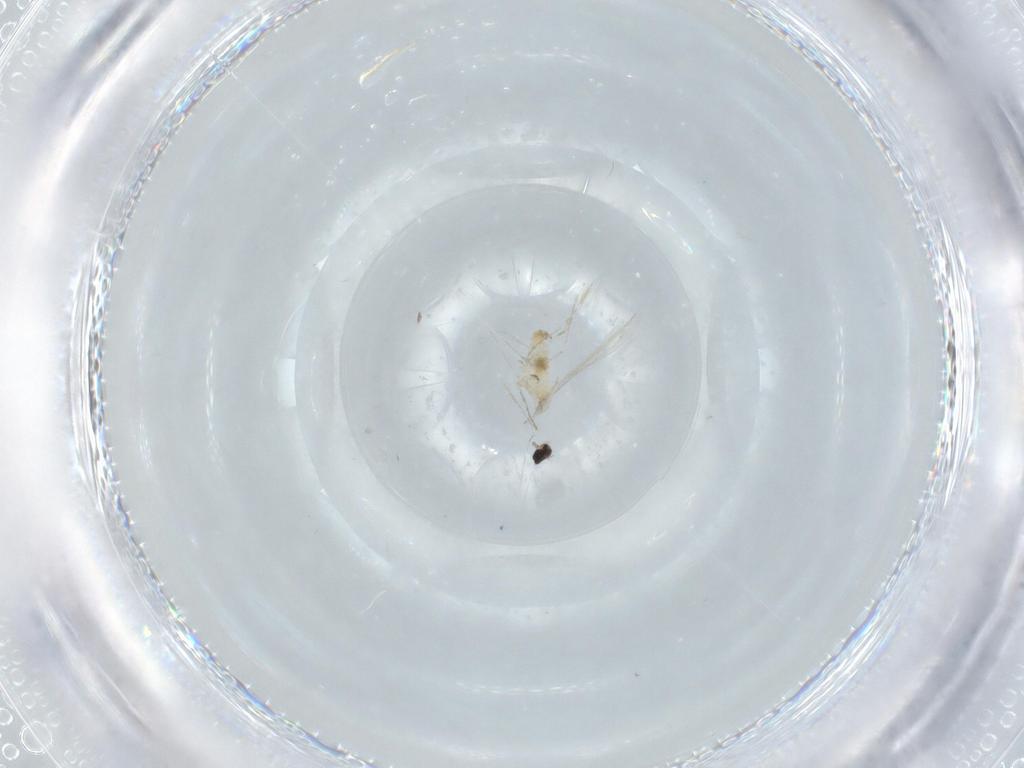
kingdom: Animalia
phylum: Arthropoda
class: Insecta
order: Diptera
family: Cecidomyiidae
